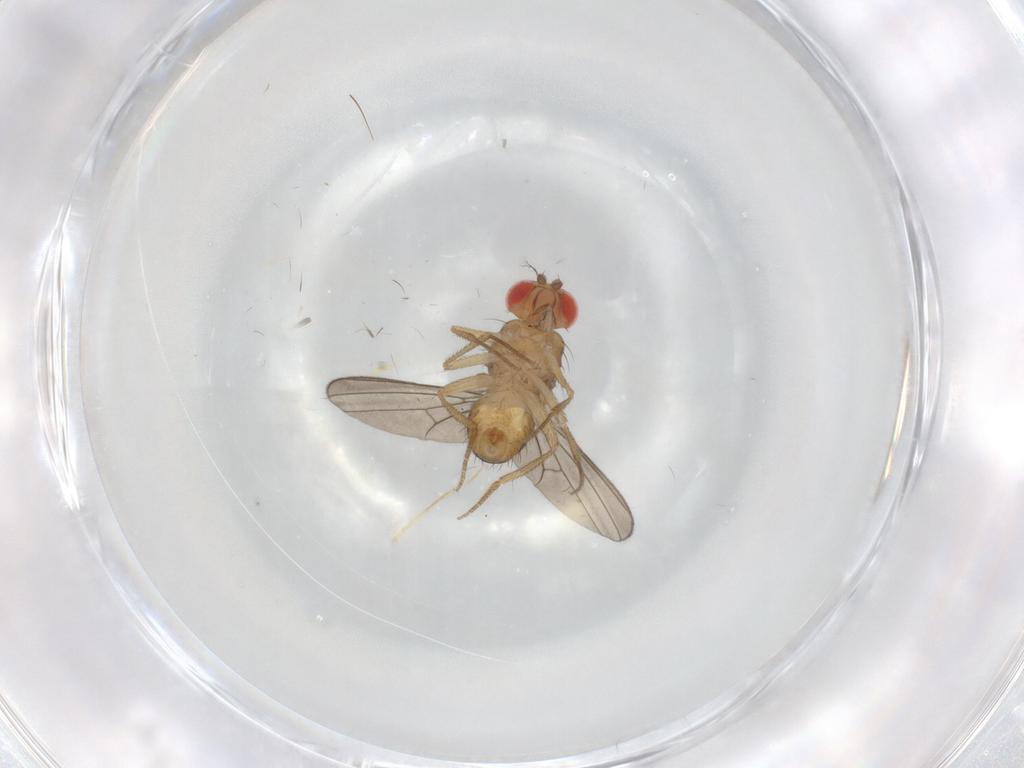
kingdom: Animalia
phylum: Arthropoda
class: Insecta
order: Diptera
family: Drosophilidae
